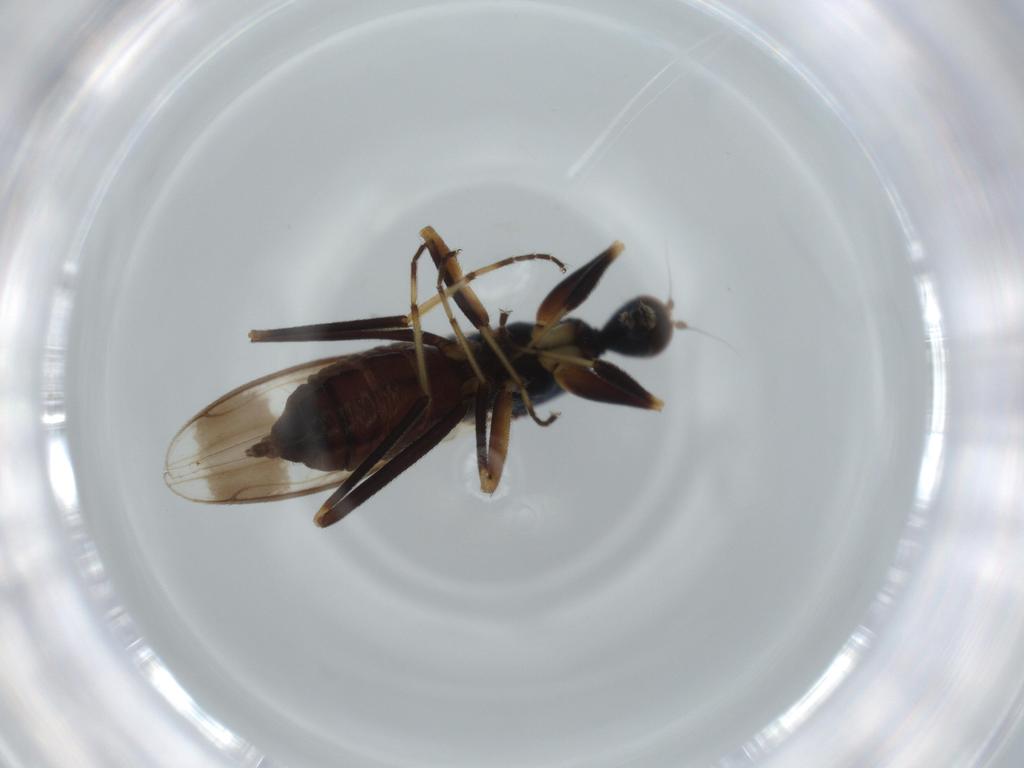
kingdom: Animalia
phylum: Arthropoda
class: Insecta
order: Diptera
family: Hybotidae
